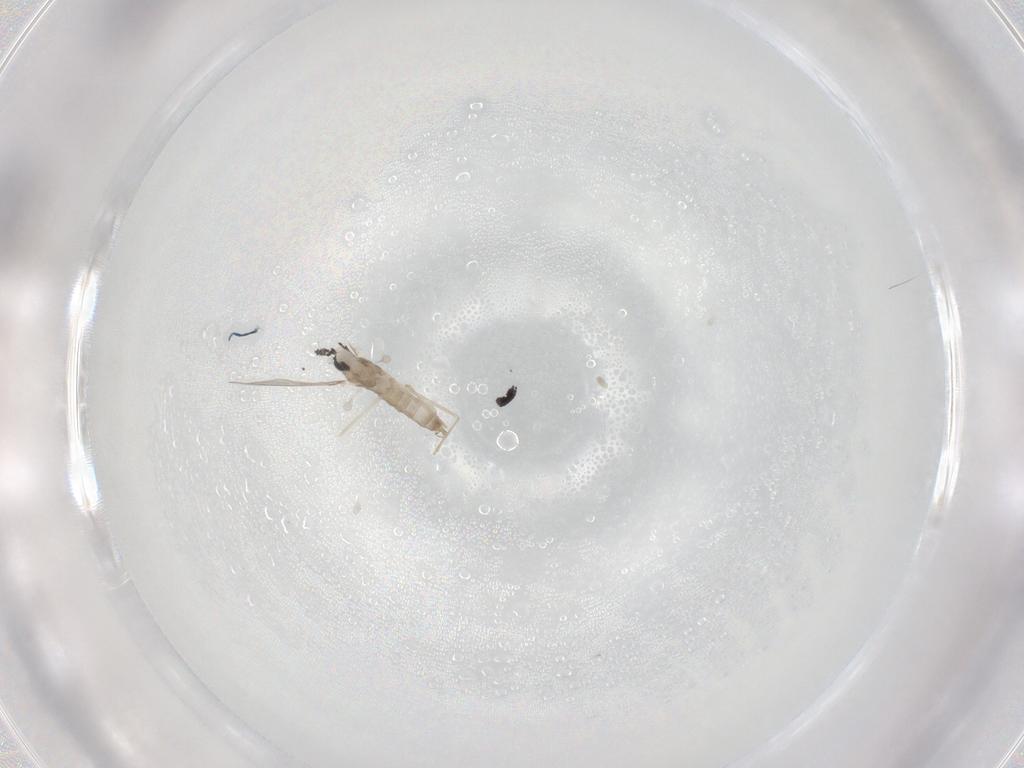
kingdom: Animalia
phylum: Arthropoda
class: Insecta
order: Diptera
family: Cecidomyiidae
